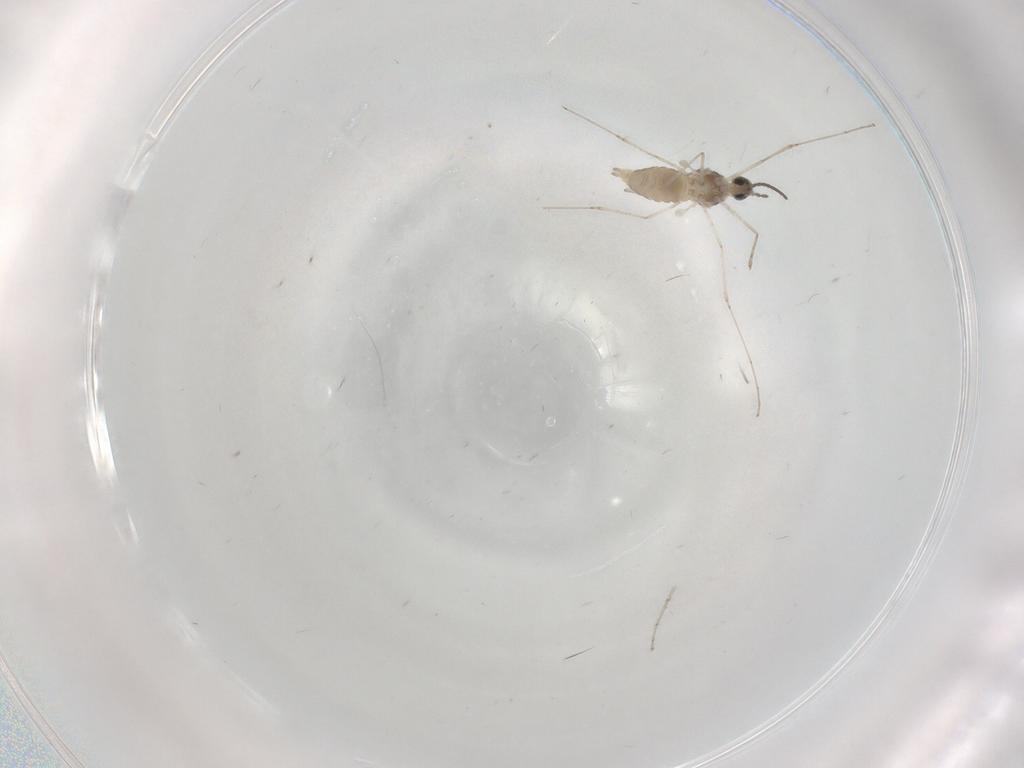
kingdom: Animalia
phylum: Arthropoda
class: Insecta
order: Diptera
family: Cecidomyiidae
